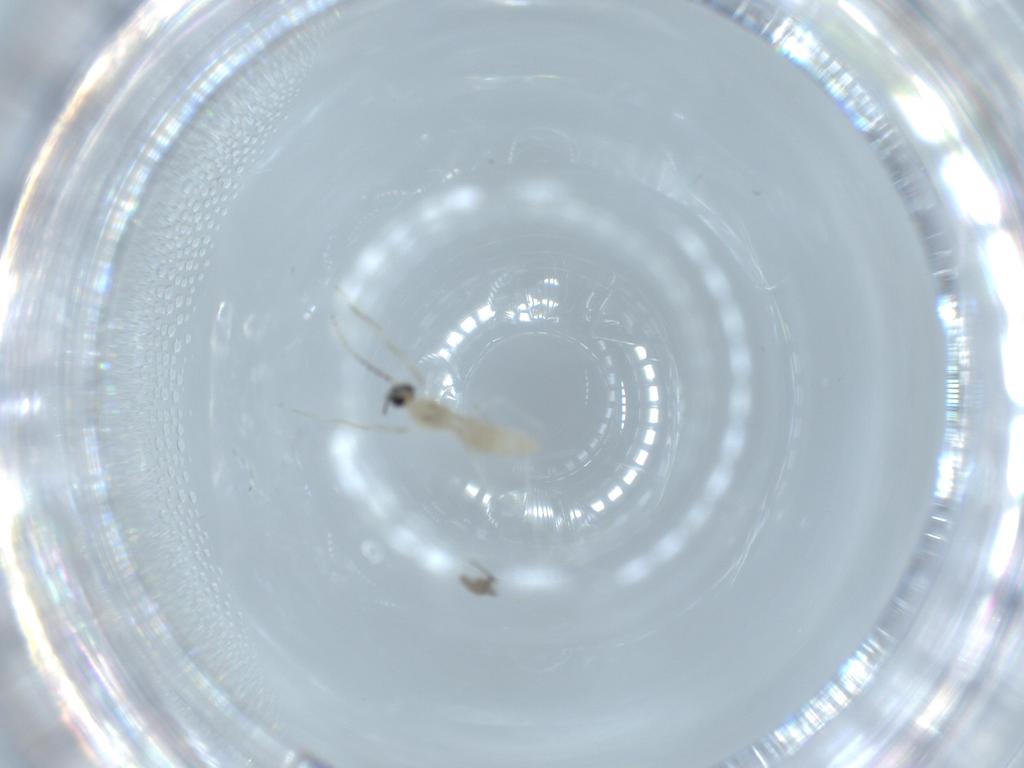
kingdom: Animalia
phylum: Arthropoda
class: Insecta
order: Diptera
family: Cecidomyiidae
